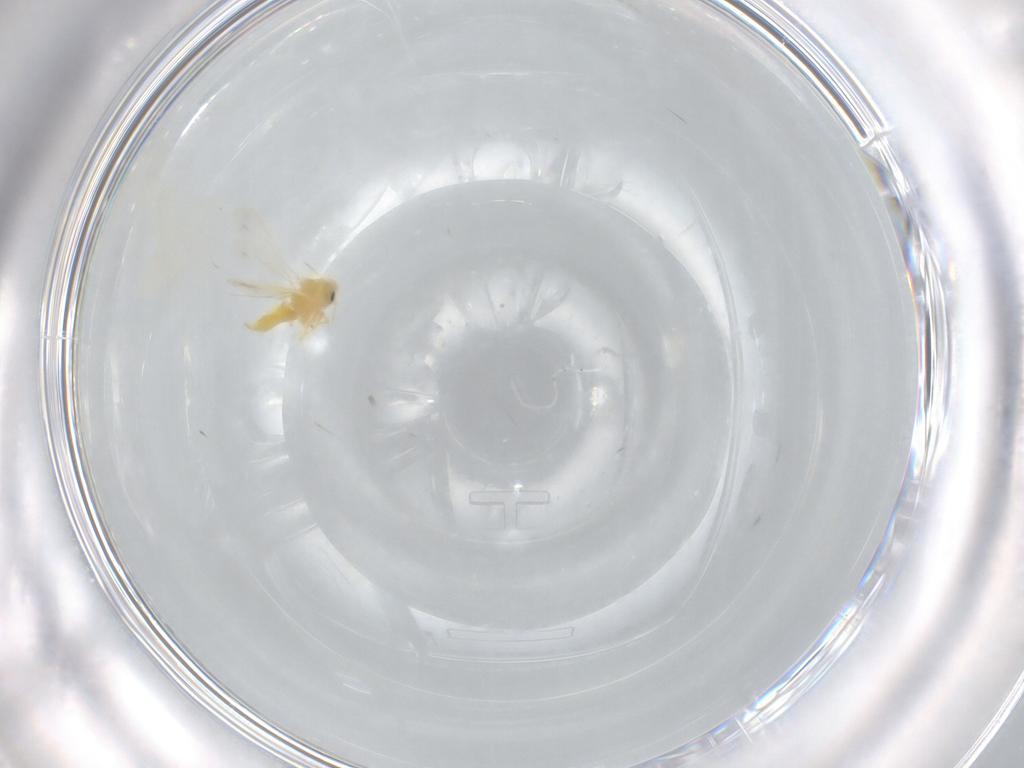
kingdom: Animalia
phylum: Arthropoda
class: Insecta
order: Hemiptera
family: Aleyrodidae
